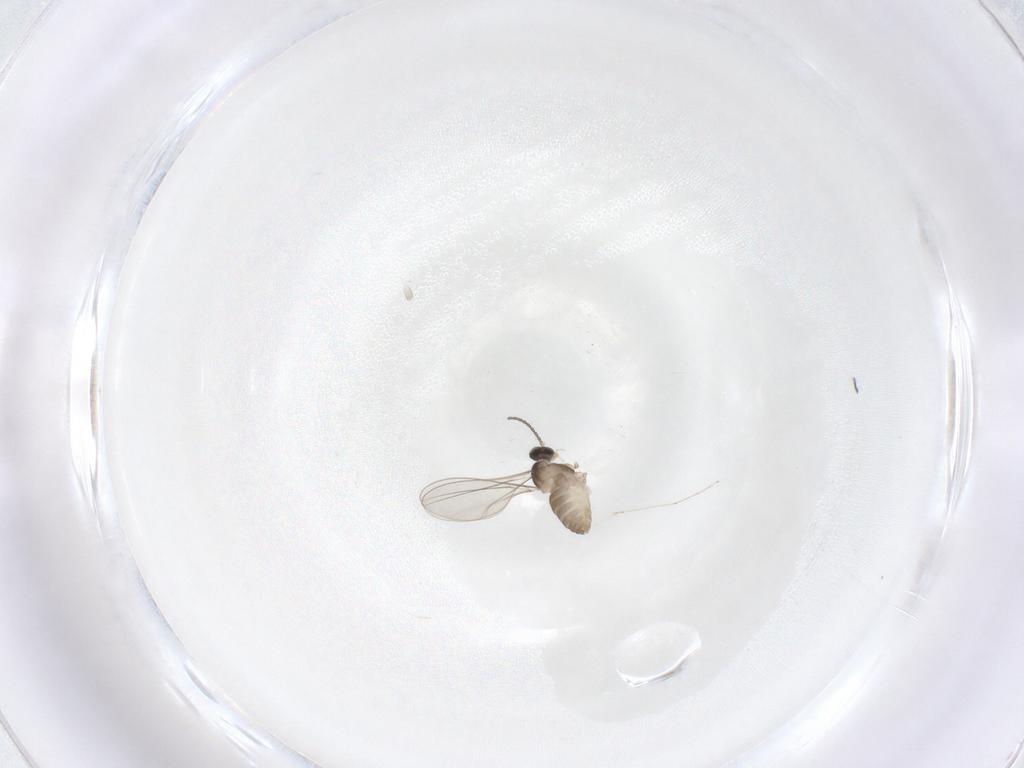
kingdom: Animalia
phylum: Arthropoda
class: Insecta
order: Diptera
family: Cecidomyiidae
